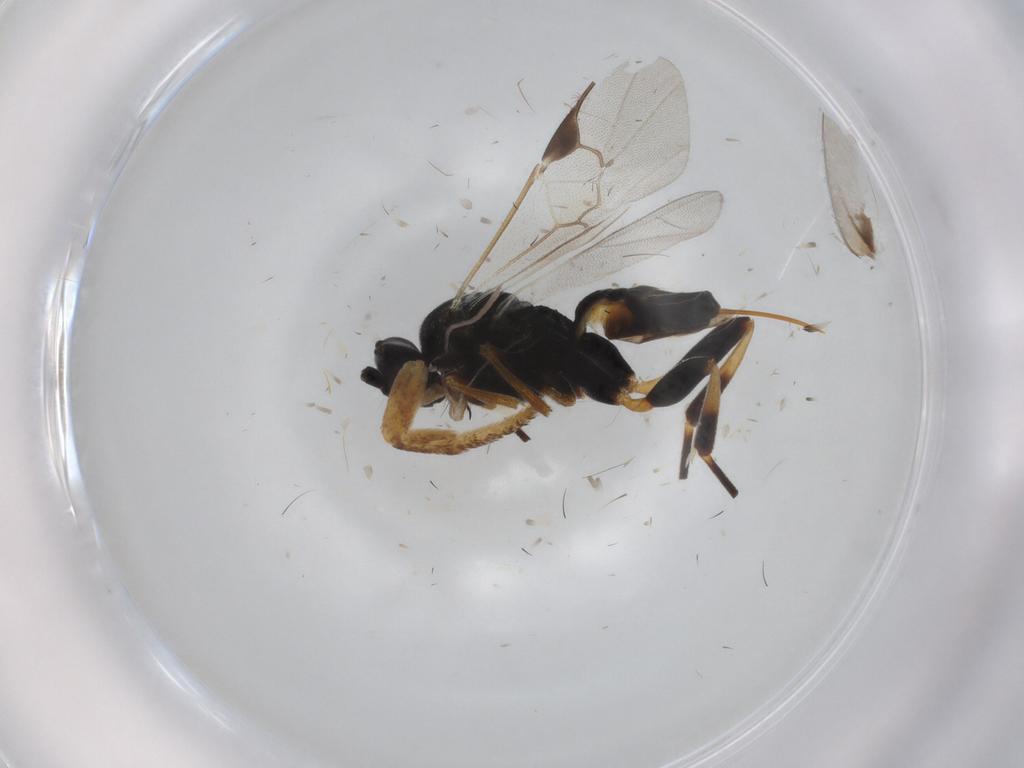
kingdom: Animalia
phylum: Arthropoda
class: Insecta
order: Hymenoptera
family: Braconidae
